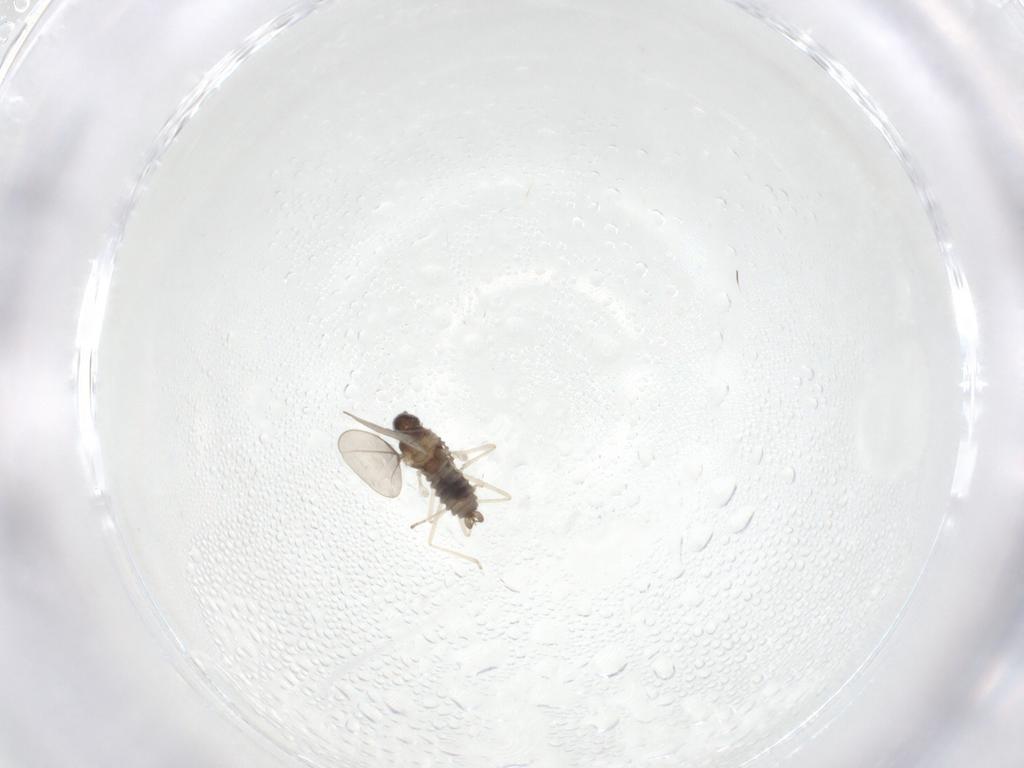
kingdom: Animalia
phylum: Arthropoda
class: Insecta
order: Diptera
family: Cecidomyiidae
